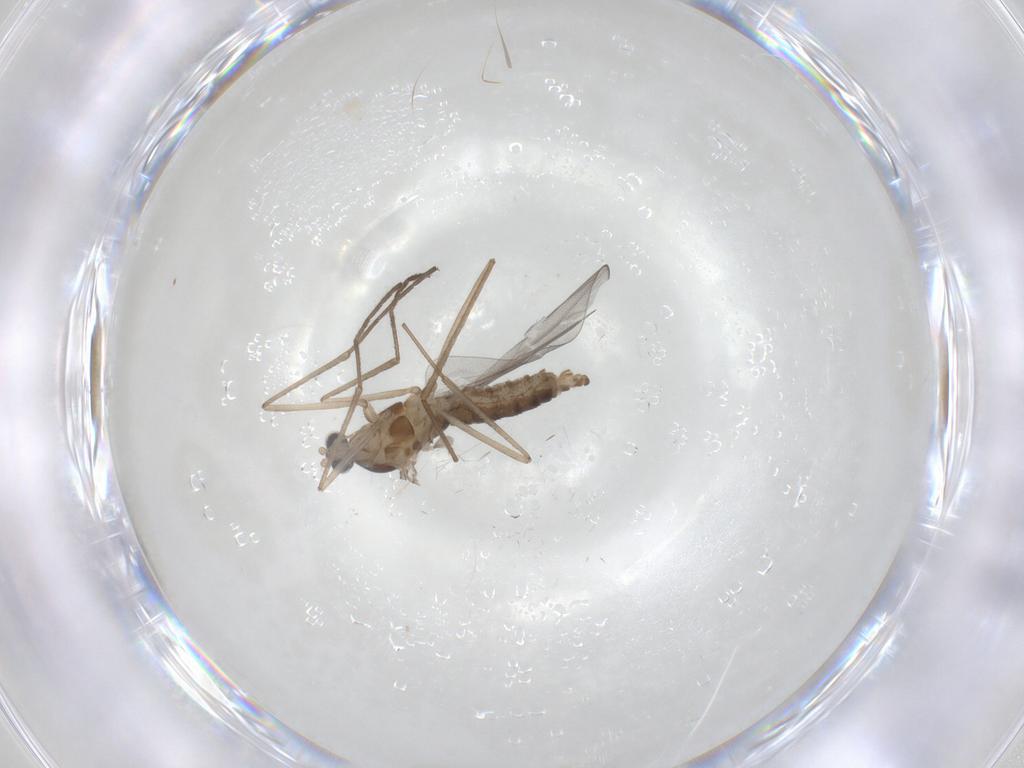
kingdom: Animalia
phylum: Arthropoda
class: Insecta
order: Diptera
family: Cecidomyiidae
